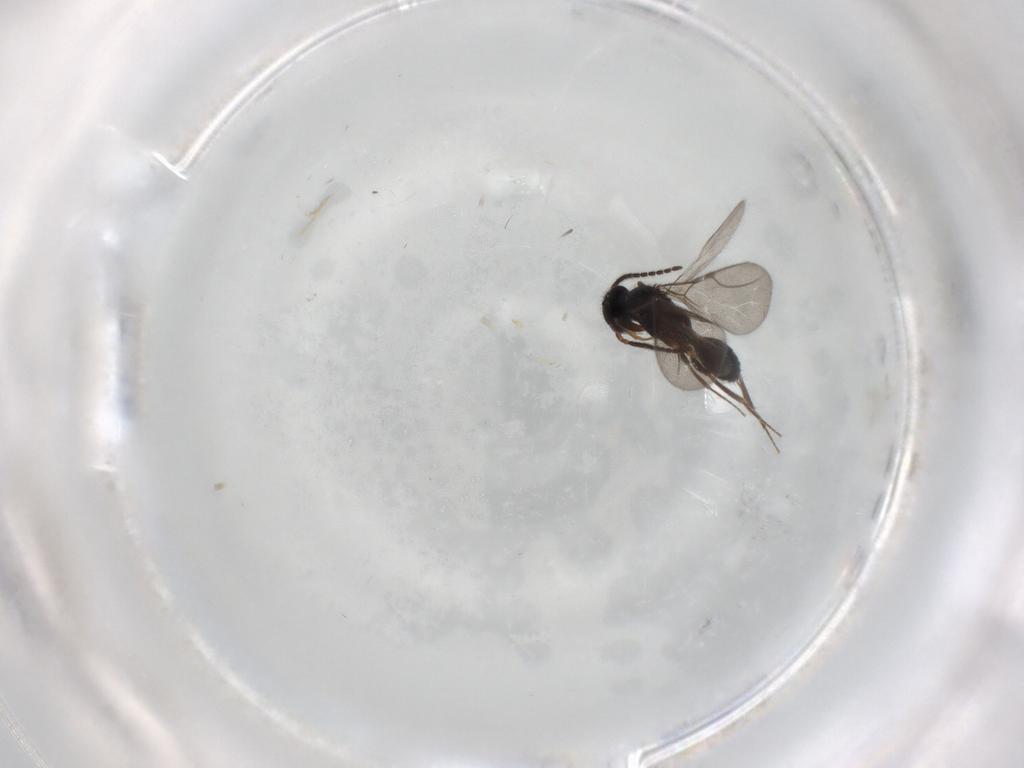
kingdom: Animalia
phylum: Arthropoda
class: Insecta
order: Hymenoptera
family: Bethylidae
